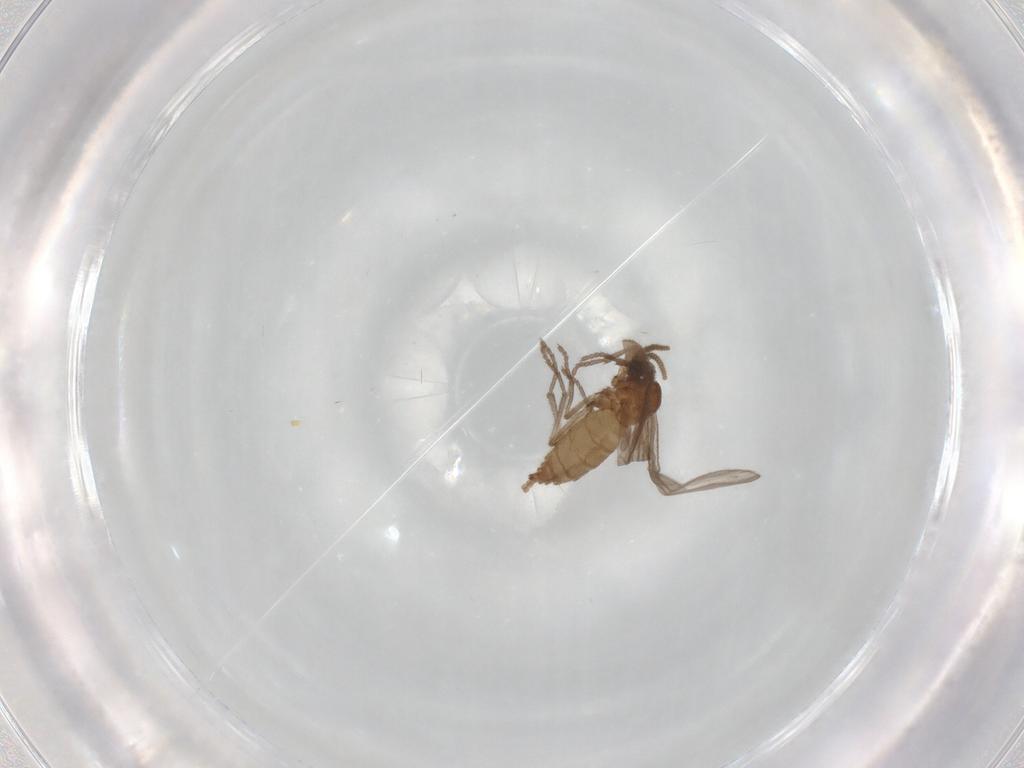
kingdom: Animalia
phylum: Arthropoda
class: Insecta
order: Diptera
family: Sciaridae
